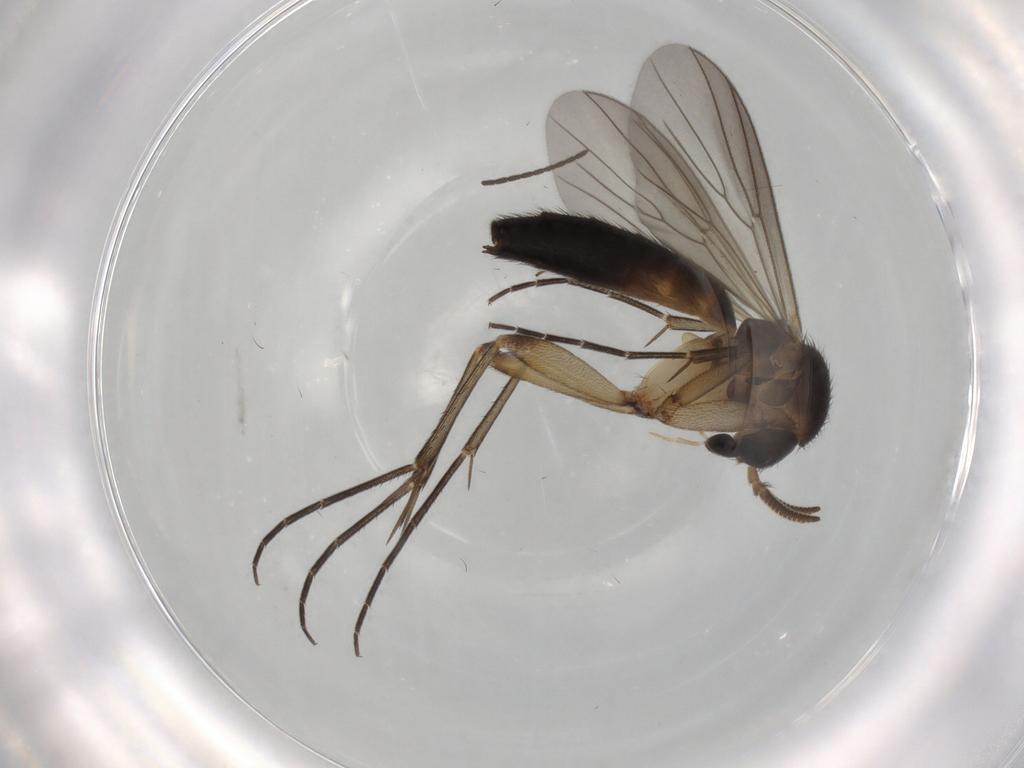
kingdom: Animalia
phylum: Arthropoda
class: Insecta
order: Diptera
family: Mycetophilidae
